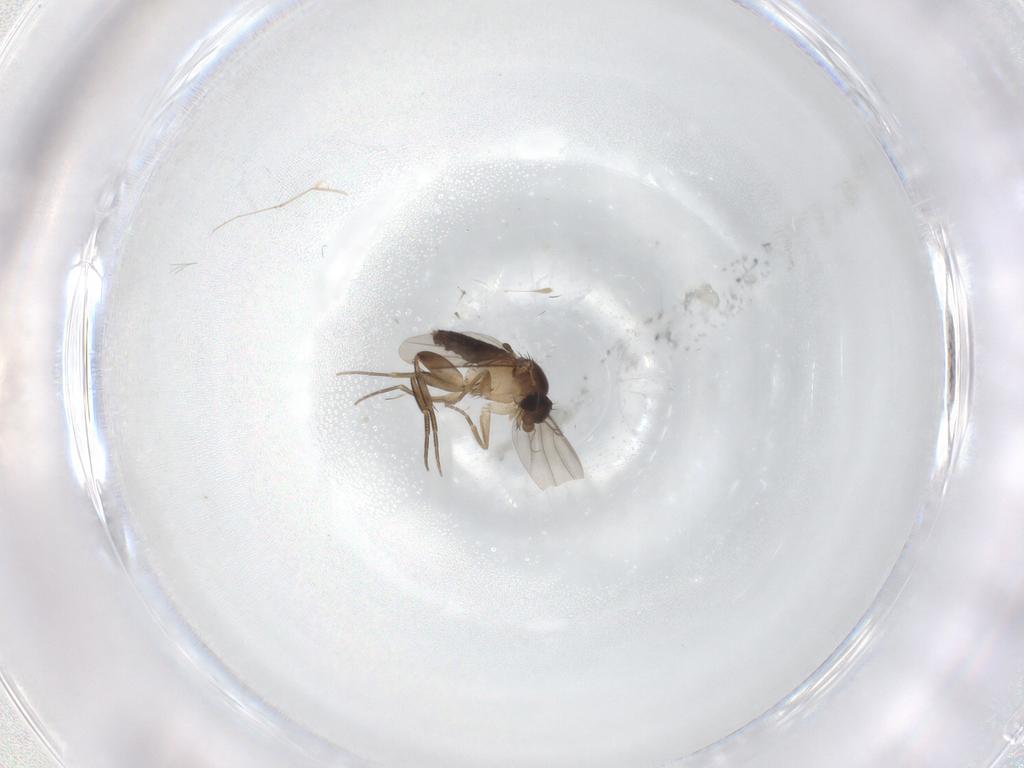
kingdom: Animalia
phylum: Arthropoda
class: Insecta
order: Diptera
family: Phoridae
